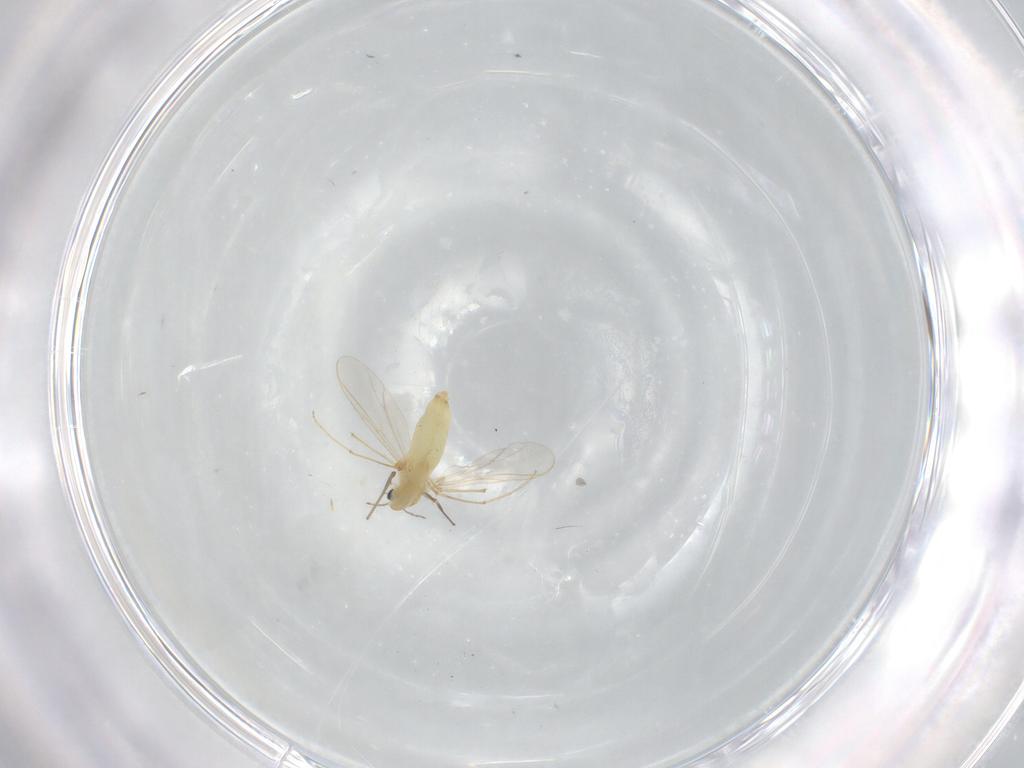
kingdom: Animalia
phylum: Arthropoda
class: Insecta
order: Diptera
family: Chironomidae
